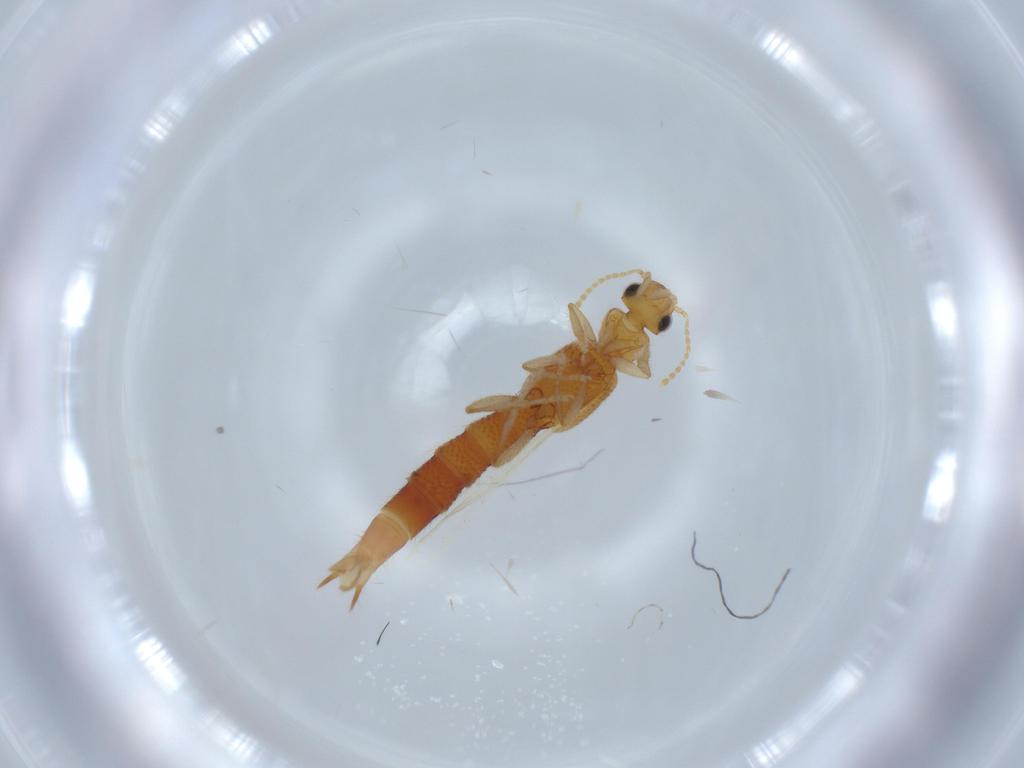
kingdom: Animalia
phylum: Arthropoda
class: Insecta
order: Coleoptera
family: Staphylinidae
